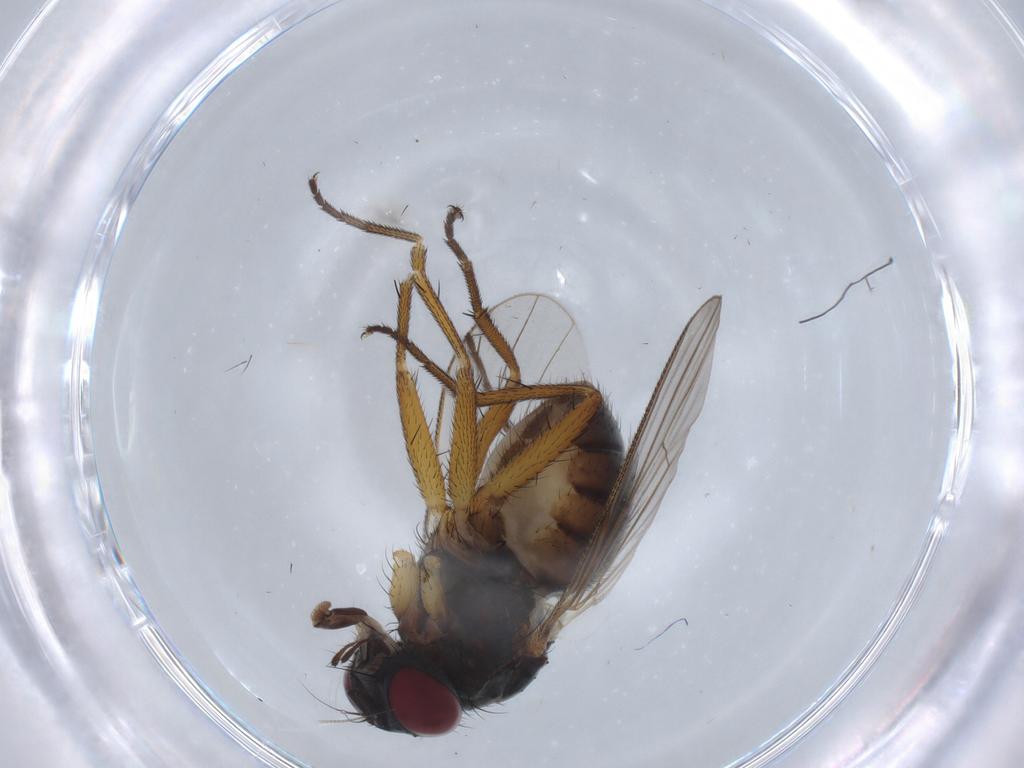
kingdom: Animalia
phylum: Arthropoda
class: Insecta
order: Diptera
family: Muscidae
